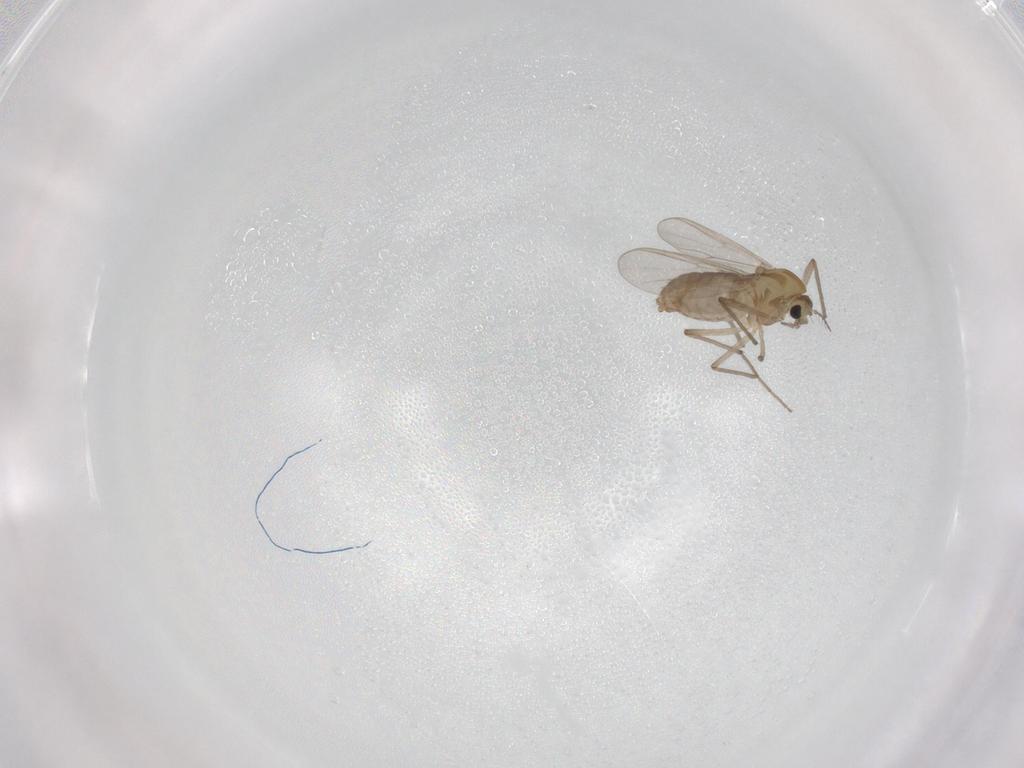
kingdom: Animalia
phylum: Arthropoda
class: Insecta
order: Diptera
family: Chironomidae
